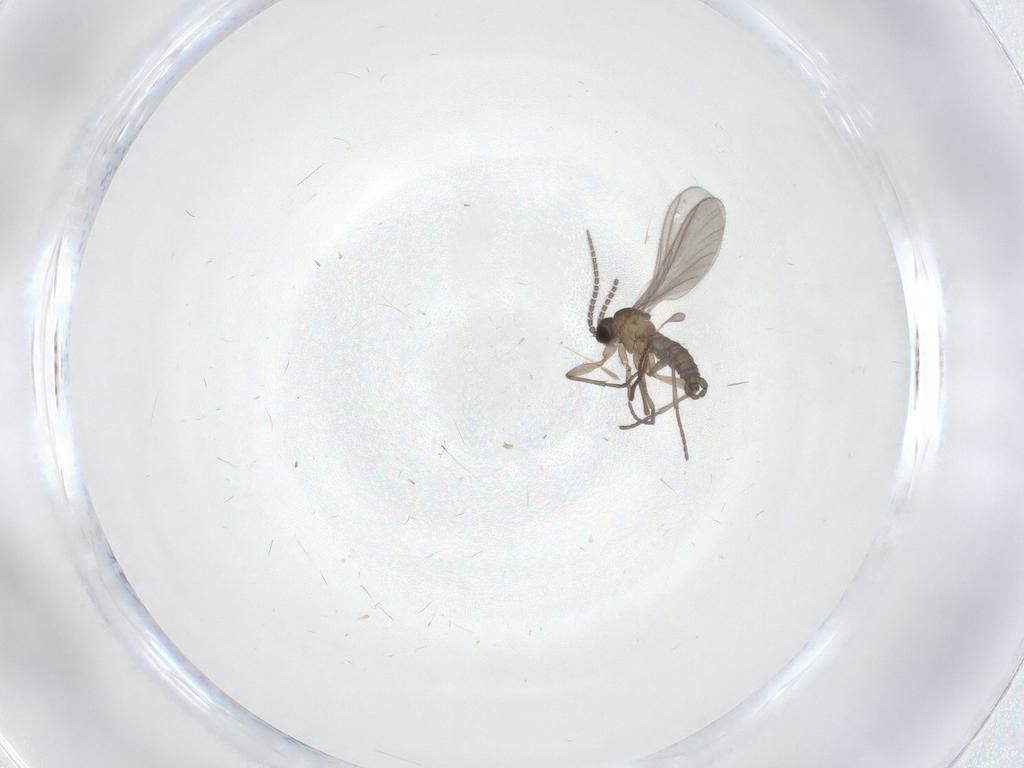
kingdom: Animalia
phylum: Arthropoda
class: Insecta
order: Diptera
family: Sciaridae
